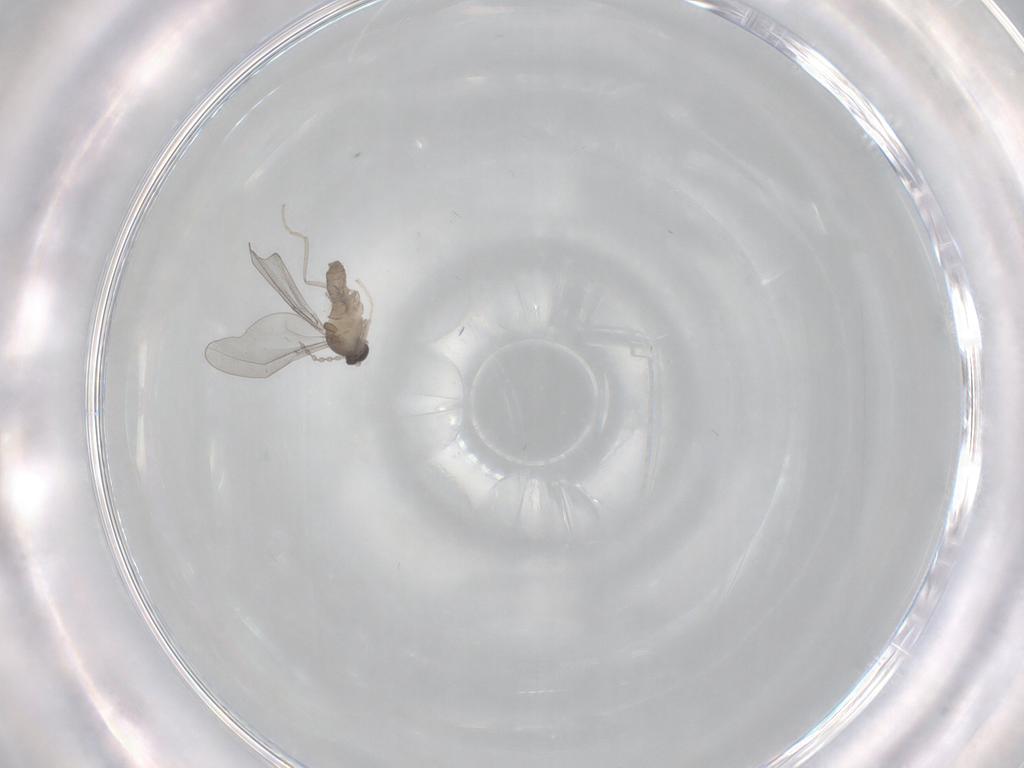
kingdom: Animalia
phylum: Arthropoda
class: Insecta
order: Diptera
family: Cecidomyiidae
